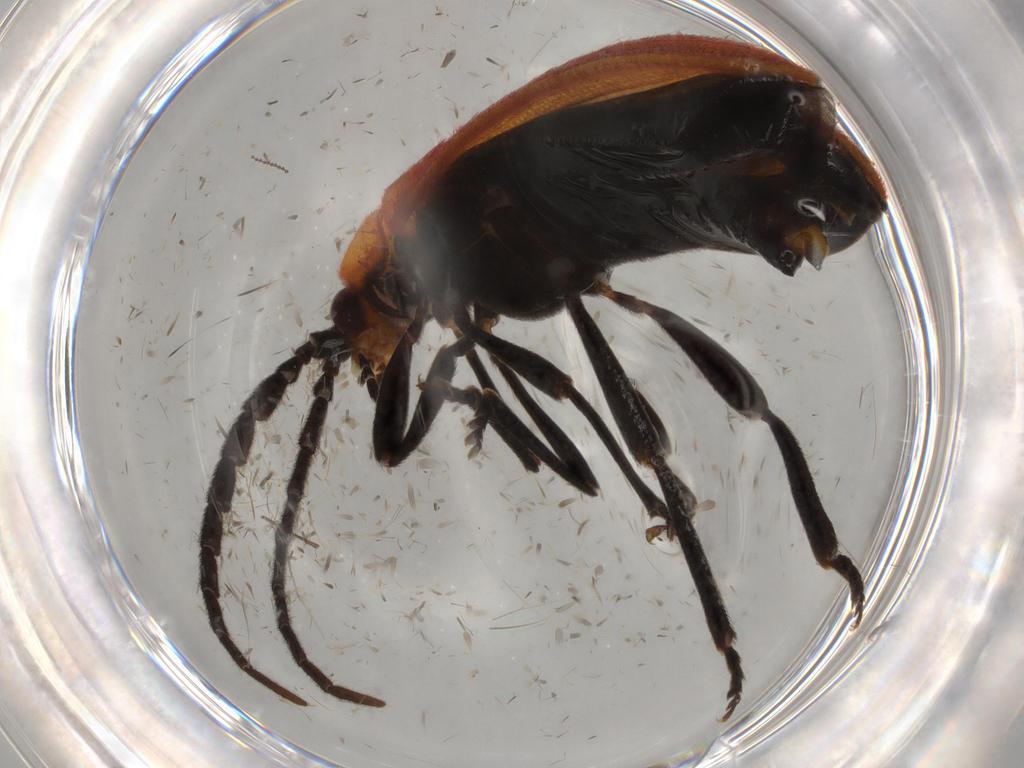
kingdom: Animalia
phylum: Arthropoda
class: Insecta
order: Coleoptera
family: Lycidae
